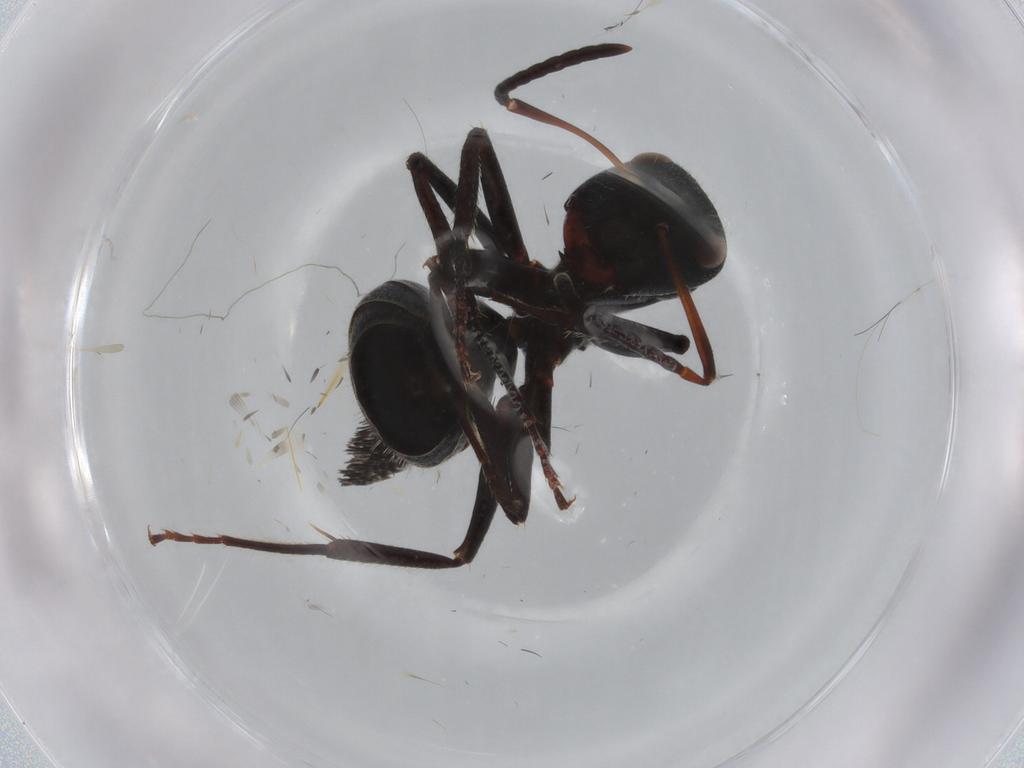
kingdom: Animalia
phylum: Arthropoda
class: Insecta
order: Hymenoptera
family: Formicidae
